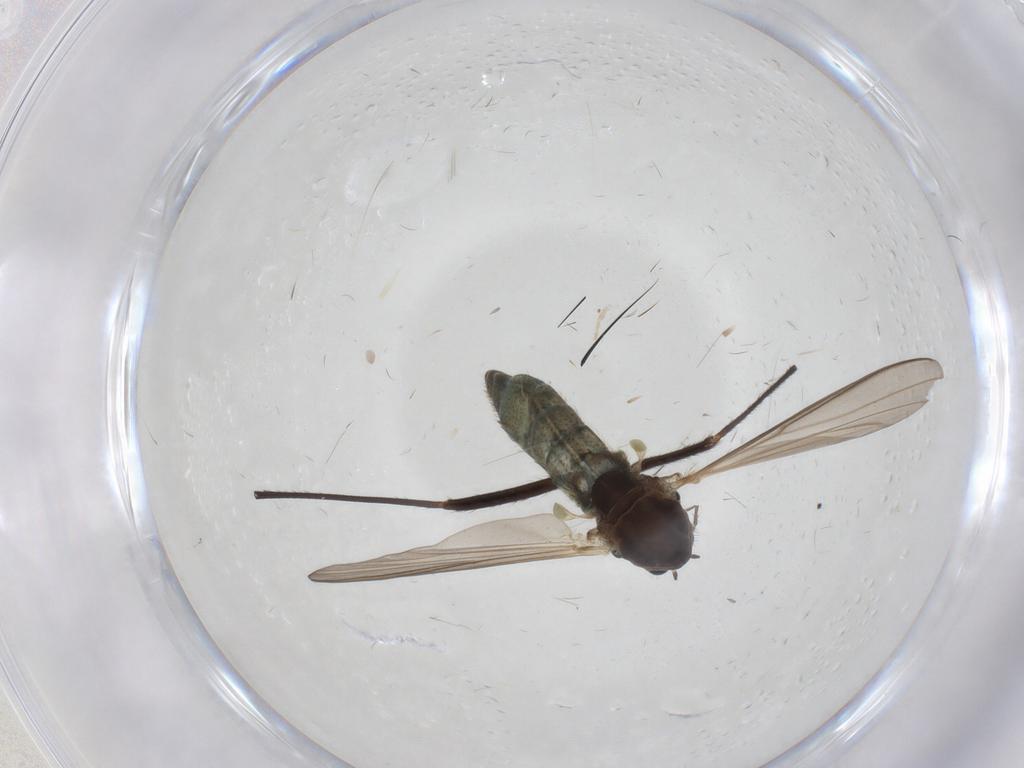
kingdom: Animalia
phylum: Arthropoda
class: Insecta
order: Diptera
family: Chironomidae
